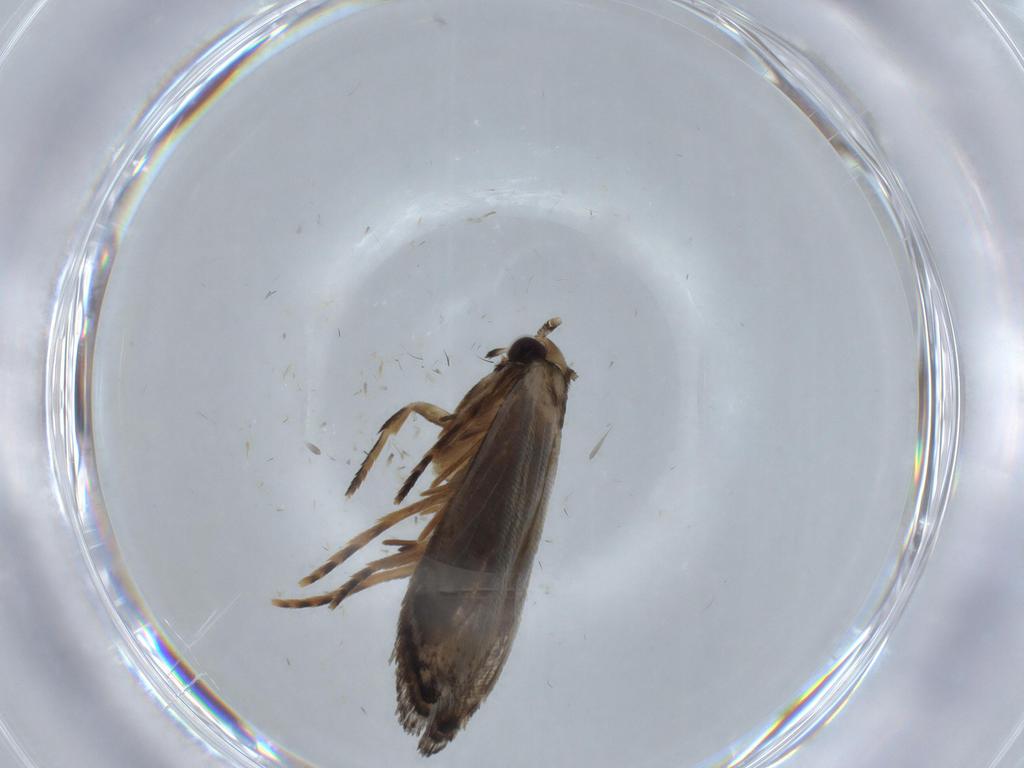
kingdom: Animalia
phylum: Arthropoda
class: Insecta
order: Lepidoptera
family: Tineidae
